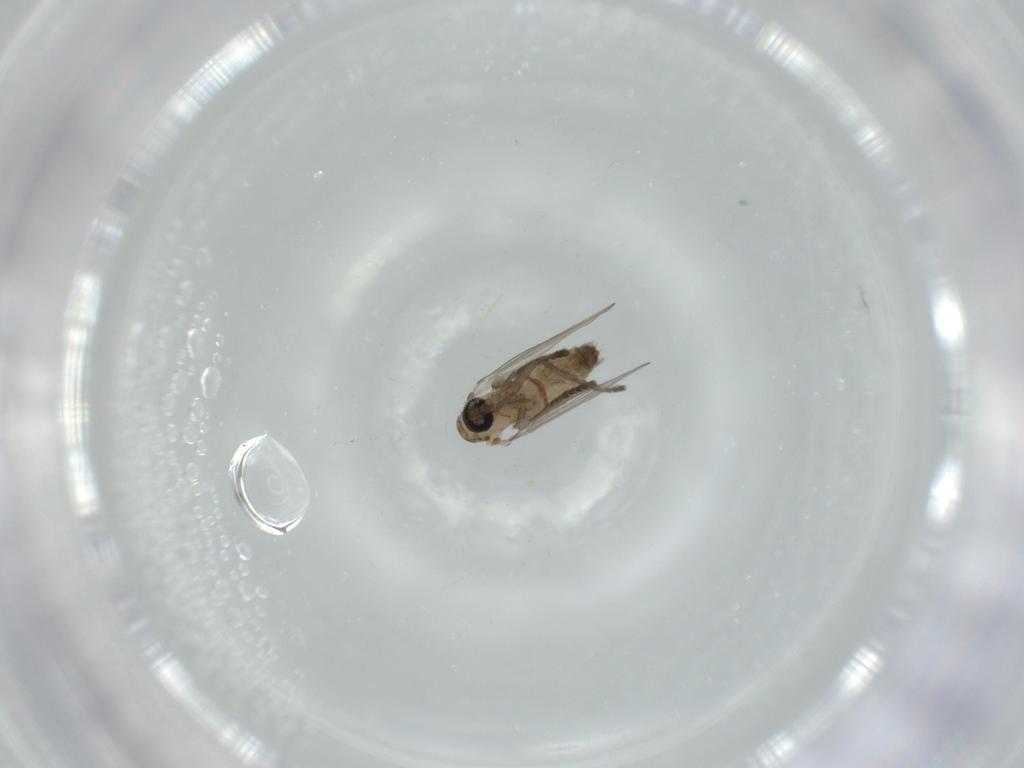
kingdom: Animalia
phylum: Arthropoda
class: Insecta
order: Diptera
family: Psychodidae
